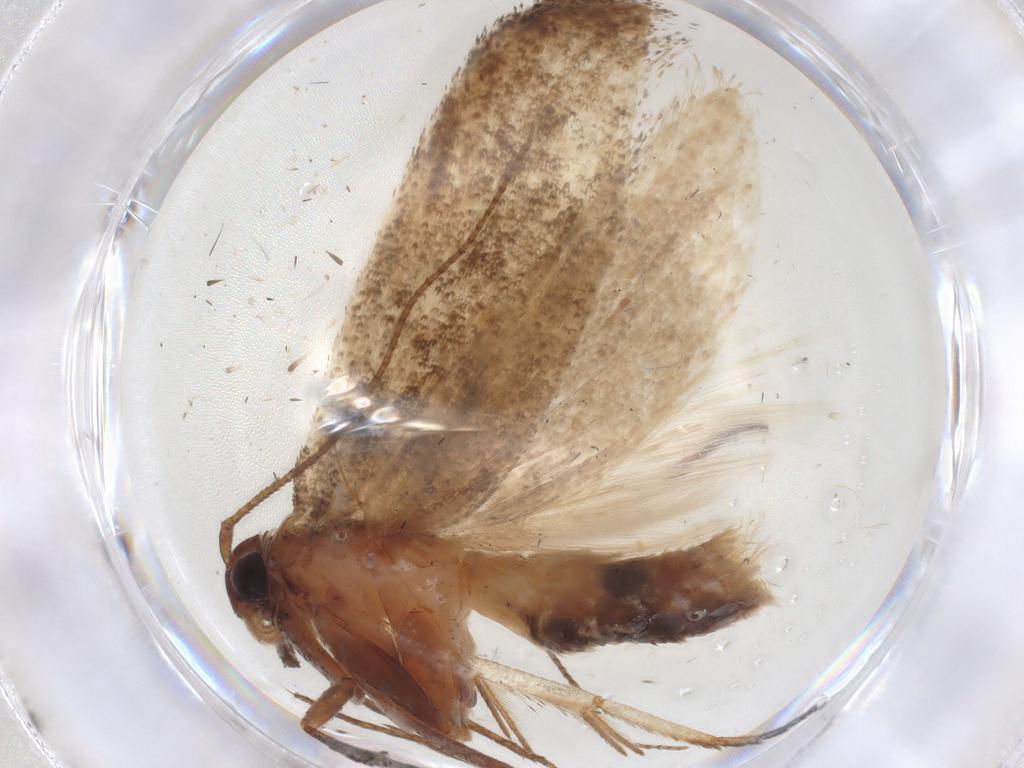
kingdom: Animalia
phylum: Arthropoda
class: Insecta
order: Lepidoptera
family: Cosmopterigidae
